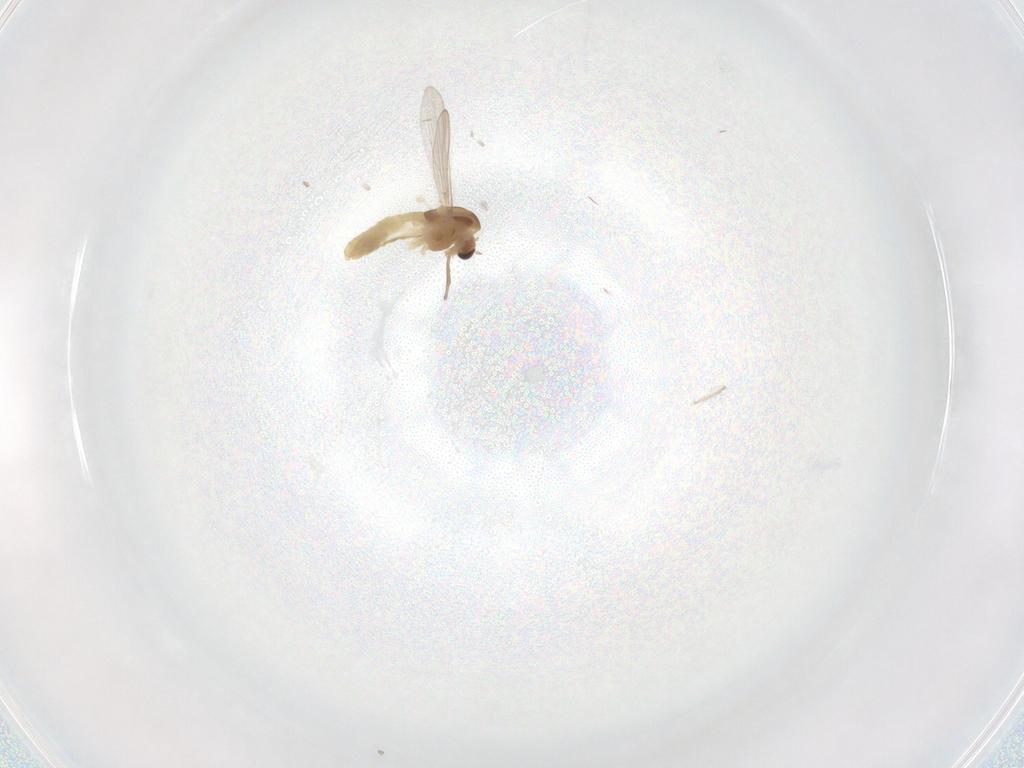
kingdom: Animalia
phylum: Arthropoda
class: Insecta
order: Diptera
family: Chironomidae
